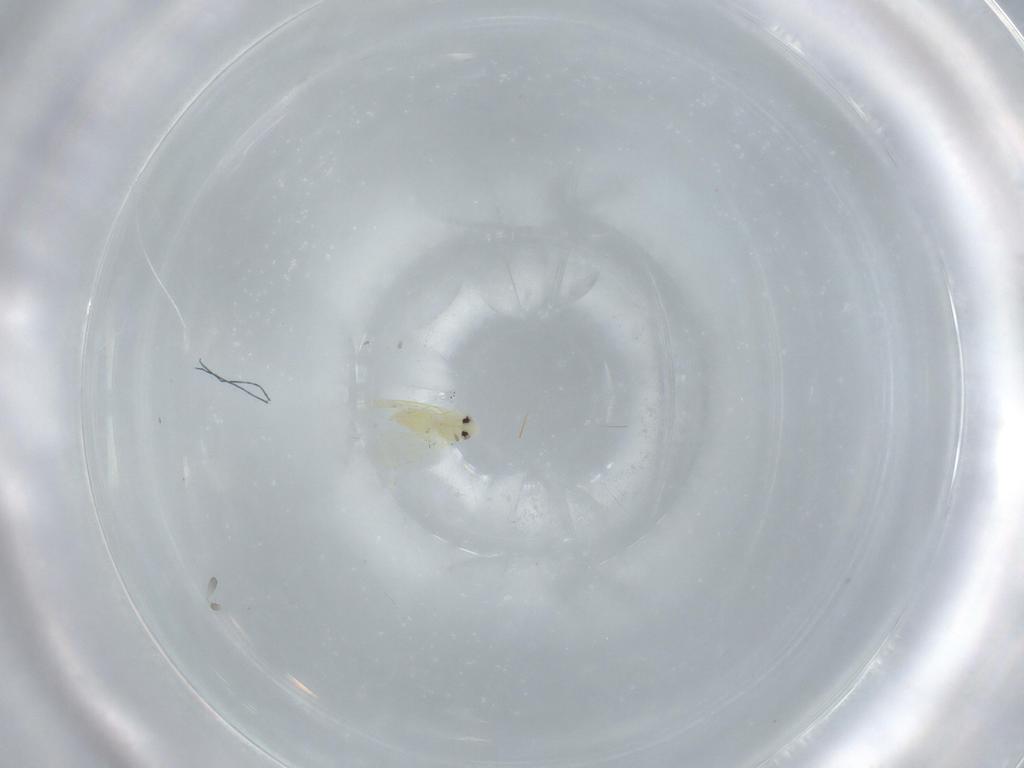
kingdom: Animalia
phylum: Arthropoda
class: Insecta
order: Hemiptera
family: Aleyrodidae
